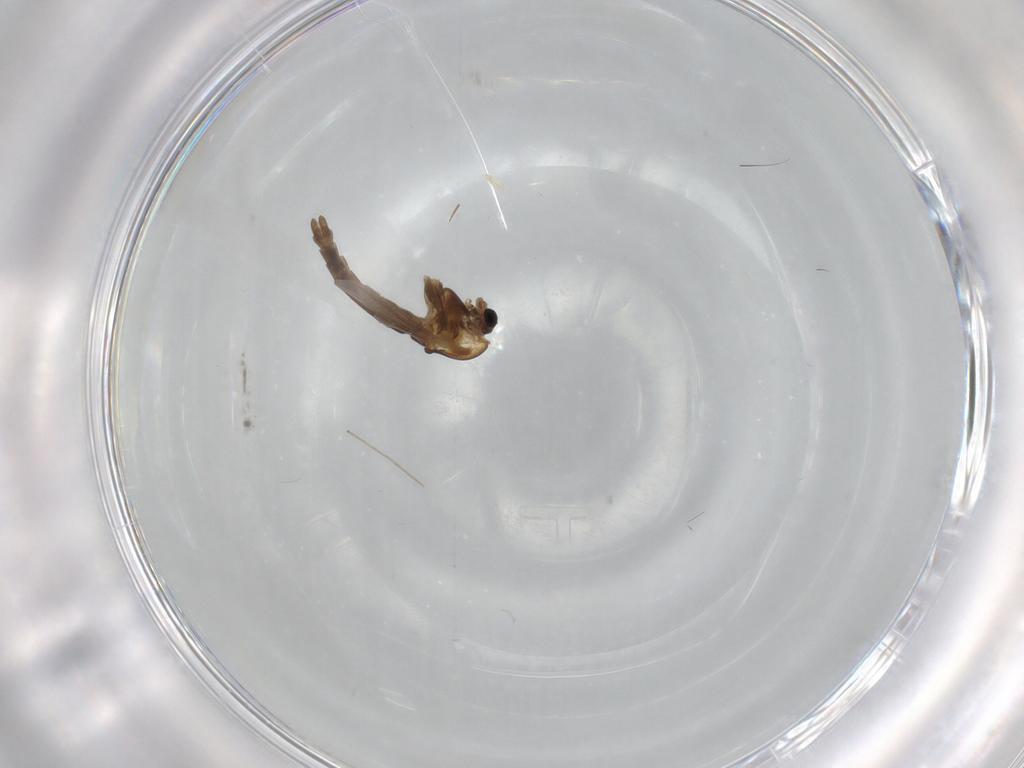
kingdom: Animalia
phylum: Arthropoda
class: Insecta
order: Diptera
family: Chironomidae
